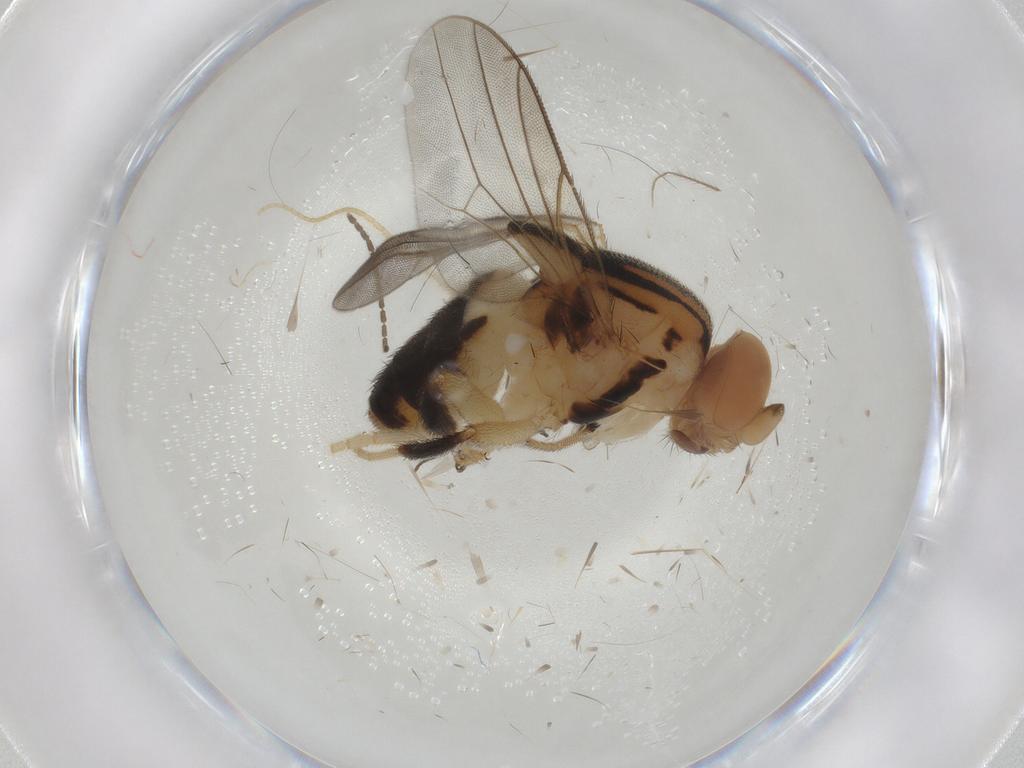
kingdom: Animalia
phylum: Arthropoda
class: Insecta
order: Diptera
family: Chloropidae
